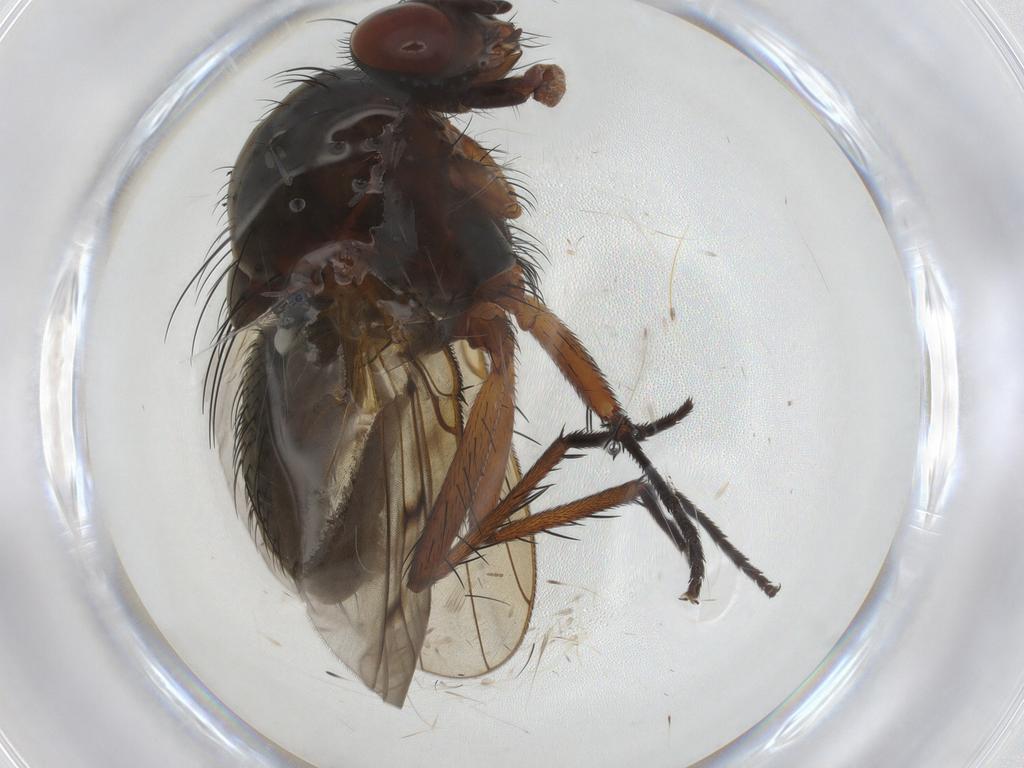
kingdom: Animalia
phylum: Arthropoda
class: Insecta
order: Diptera
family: Anthomyiidae
